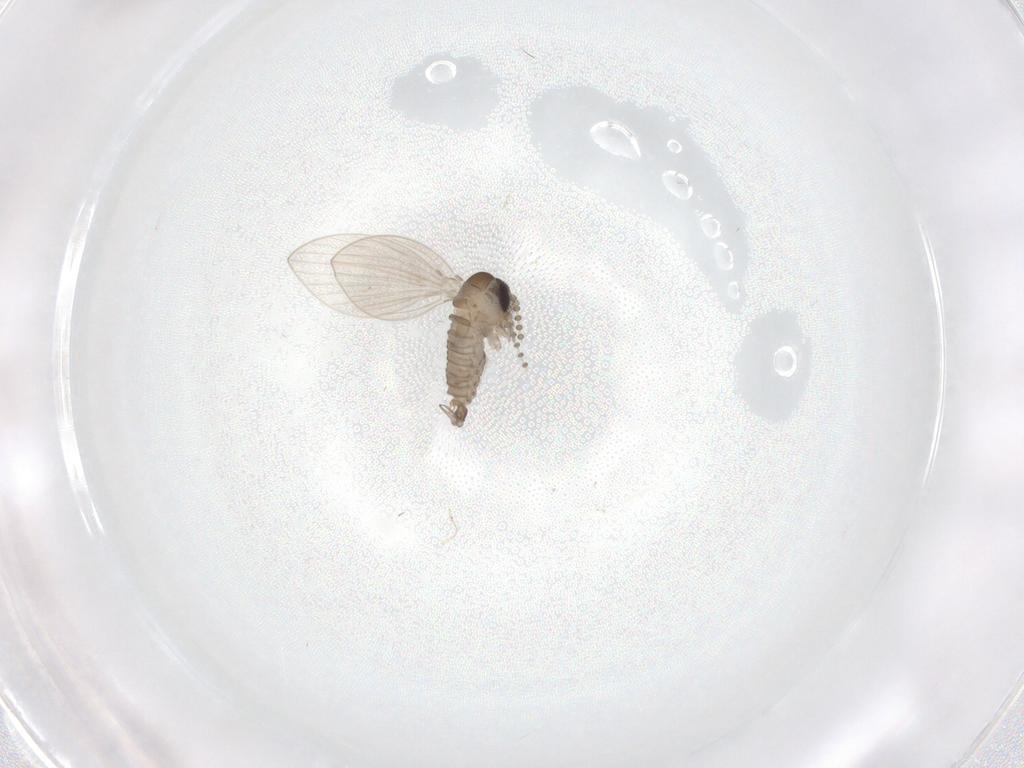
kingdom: Animalia
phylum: Arthropoda
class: Insecta
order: Diptera
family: Psychodidae
